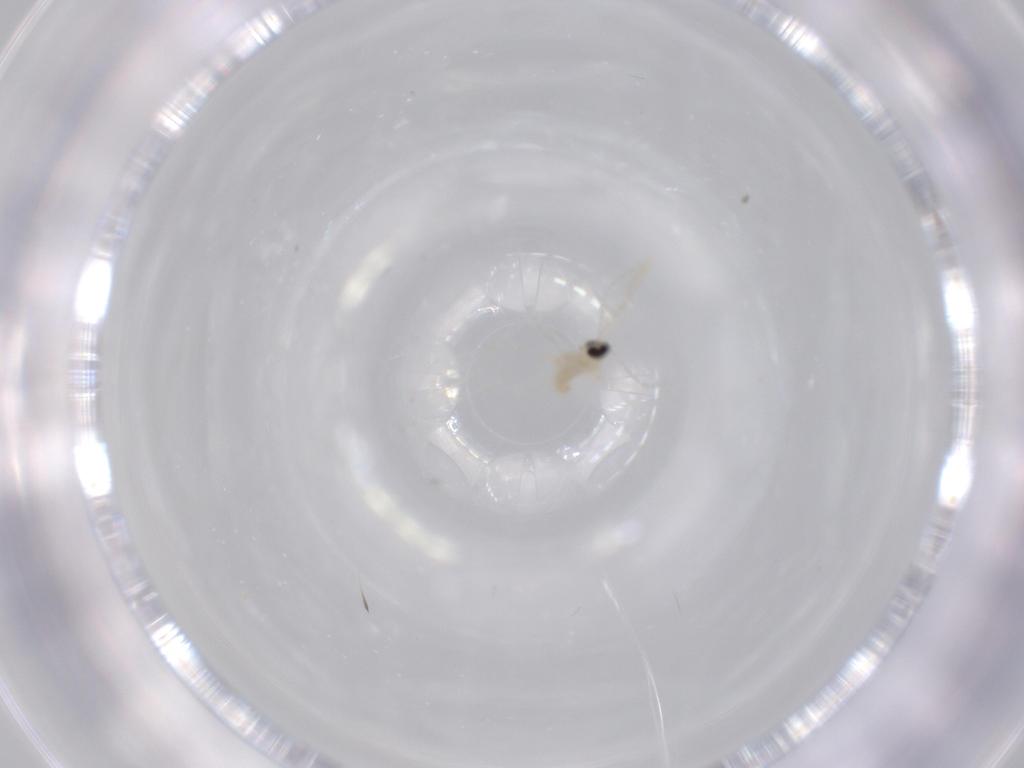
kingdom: Animalia
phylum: Arthropoda
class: Insecta
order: Diptera
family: Cecidomyiidae
